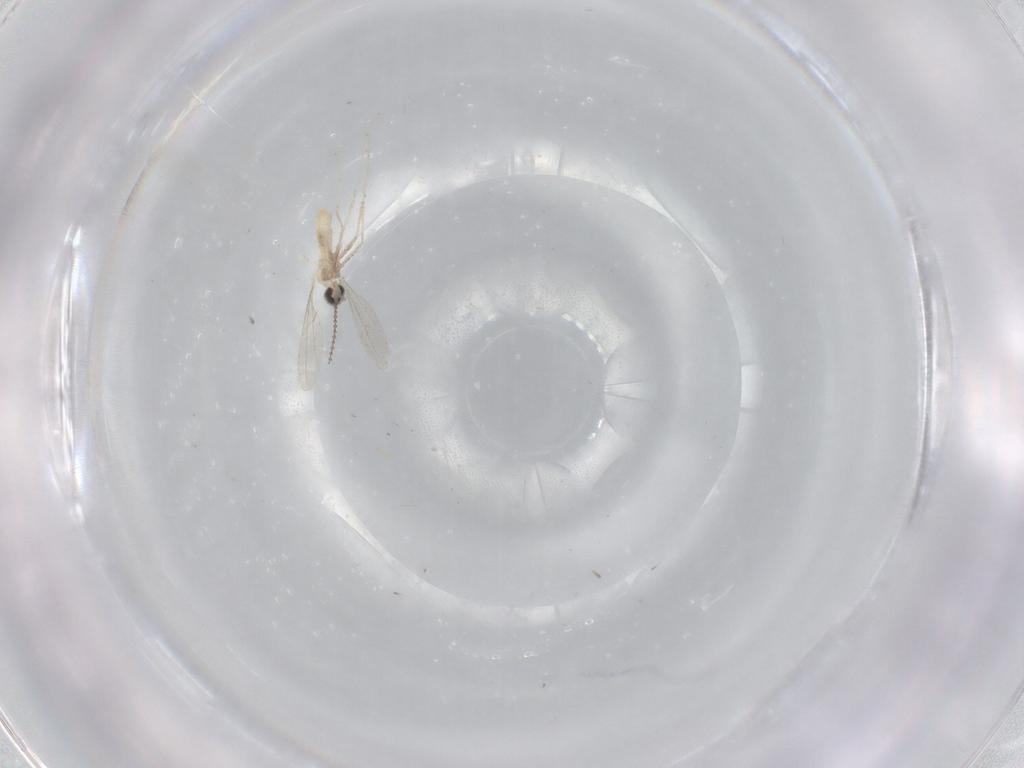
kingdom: Animalia
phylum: Arthropoda
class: Insecta
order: Diptera
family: Cecidomyiidae
